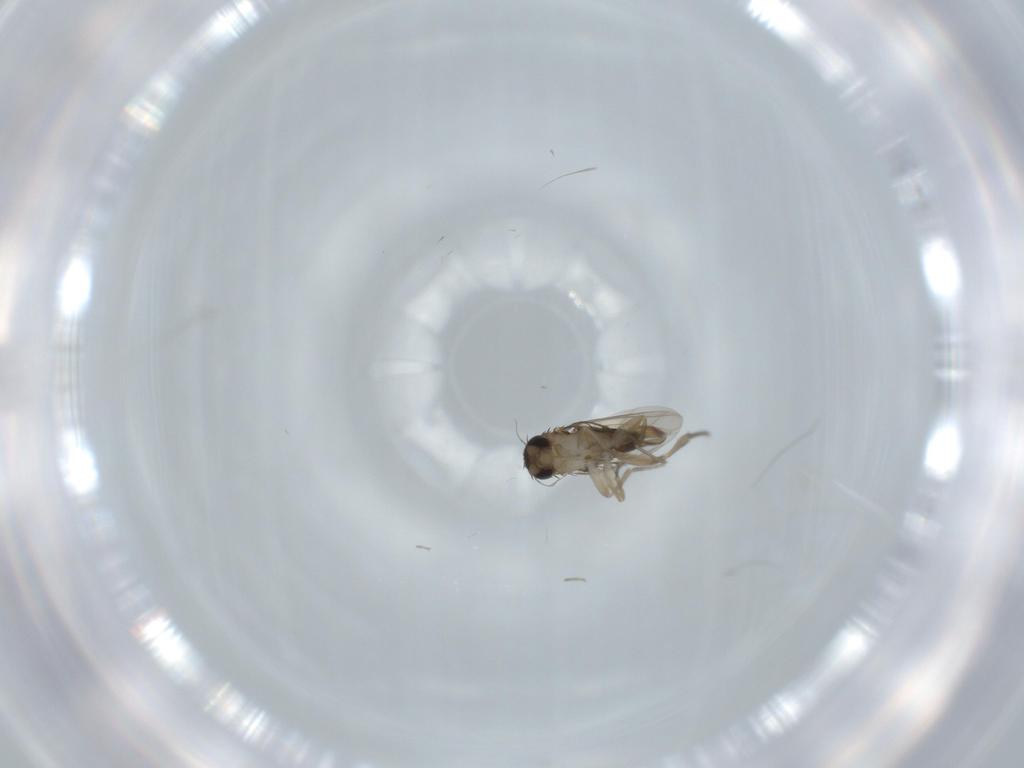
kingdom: Animalia
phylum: Arthropoda
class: Insecta
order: Diptera
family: Phoridae
